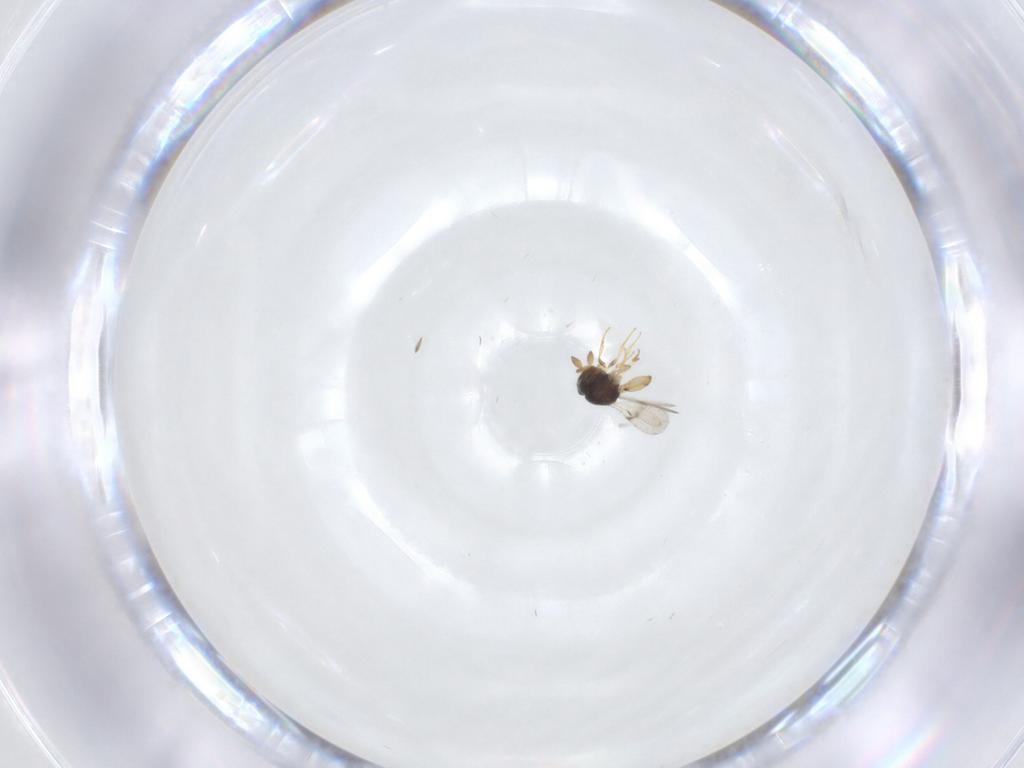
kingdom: Animalia
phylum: Arthropoda
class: Insecta
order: Hymenoptera
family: Scelionidae
